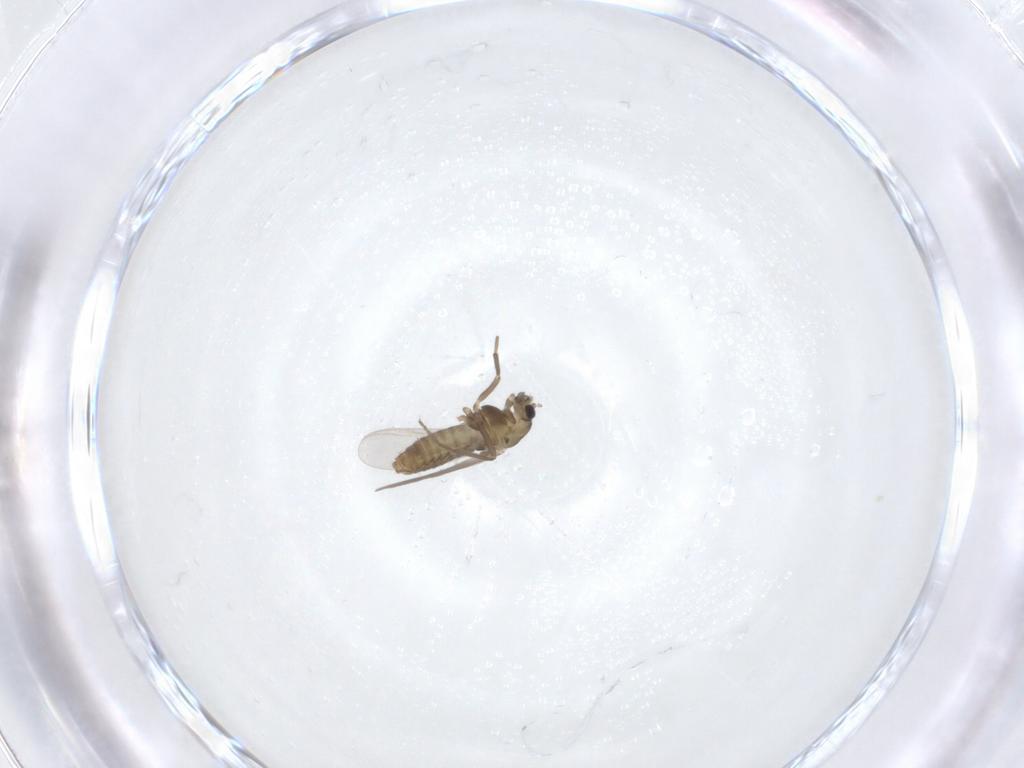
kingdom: Animalia
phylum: Arthropoda
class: Insecta
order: Diptera
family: Chironomidae
